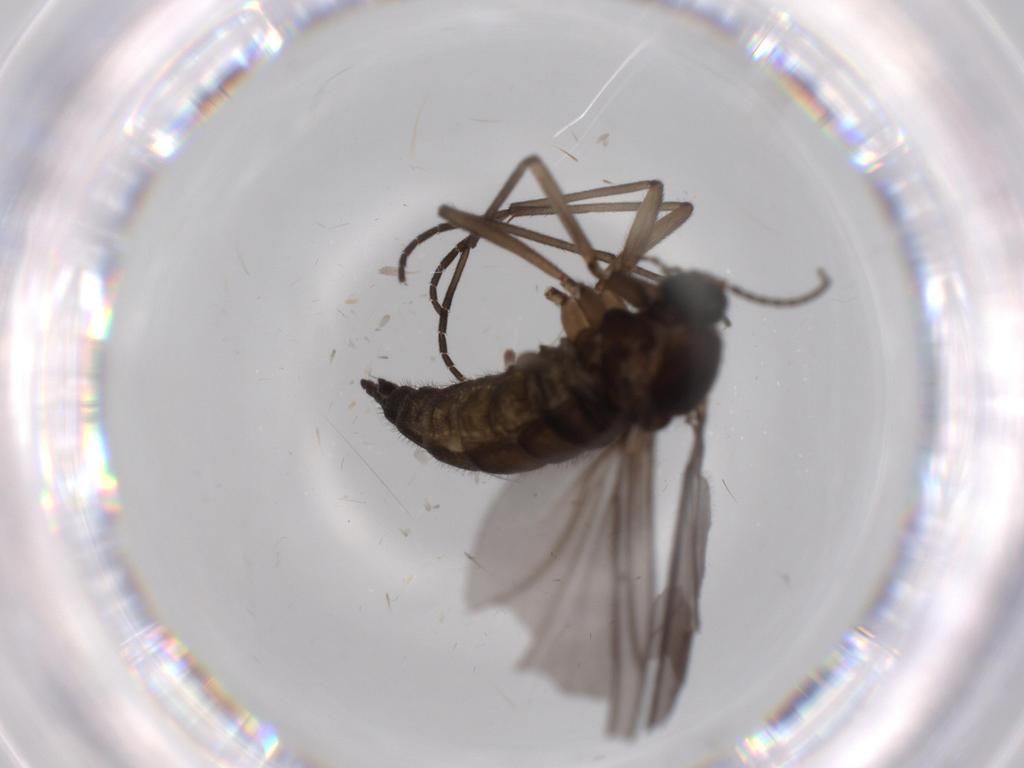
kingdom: Animalia
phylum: Arthropoda
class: Insecta
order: Diptera
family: Sciaridae
